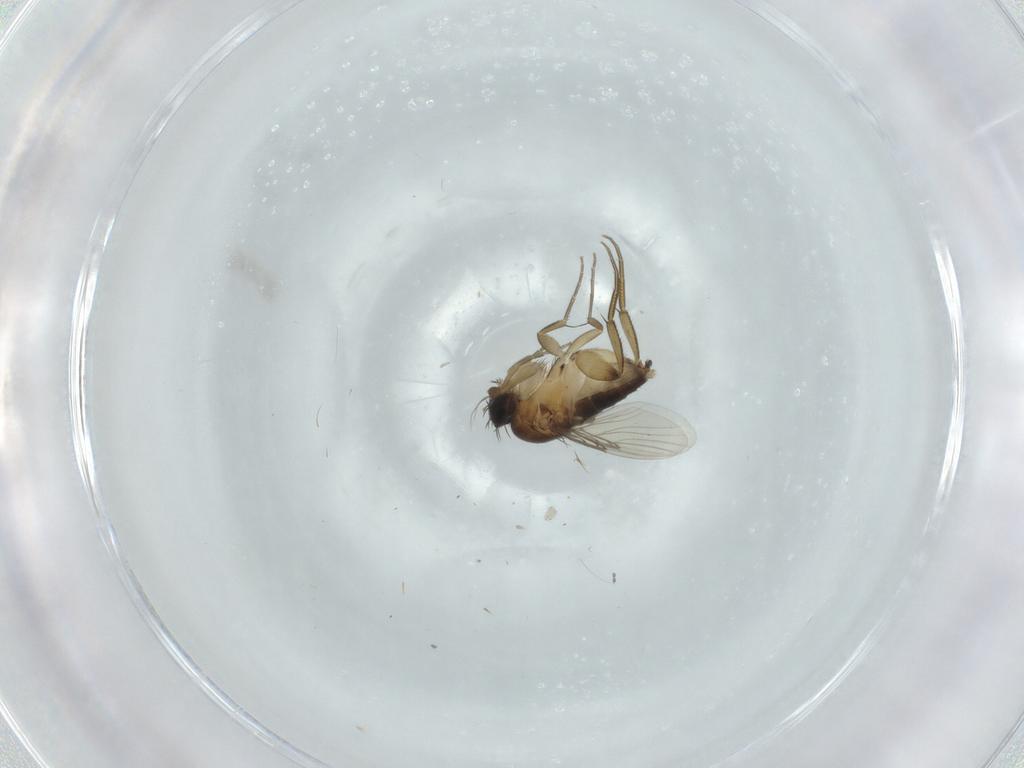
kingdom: Animalia
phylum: Arthropoda
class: Insecta
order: Diptera
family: Phoridae
